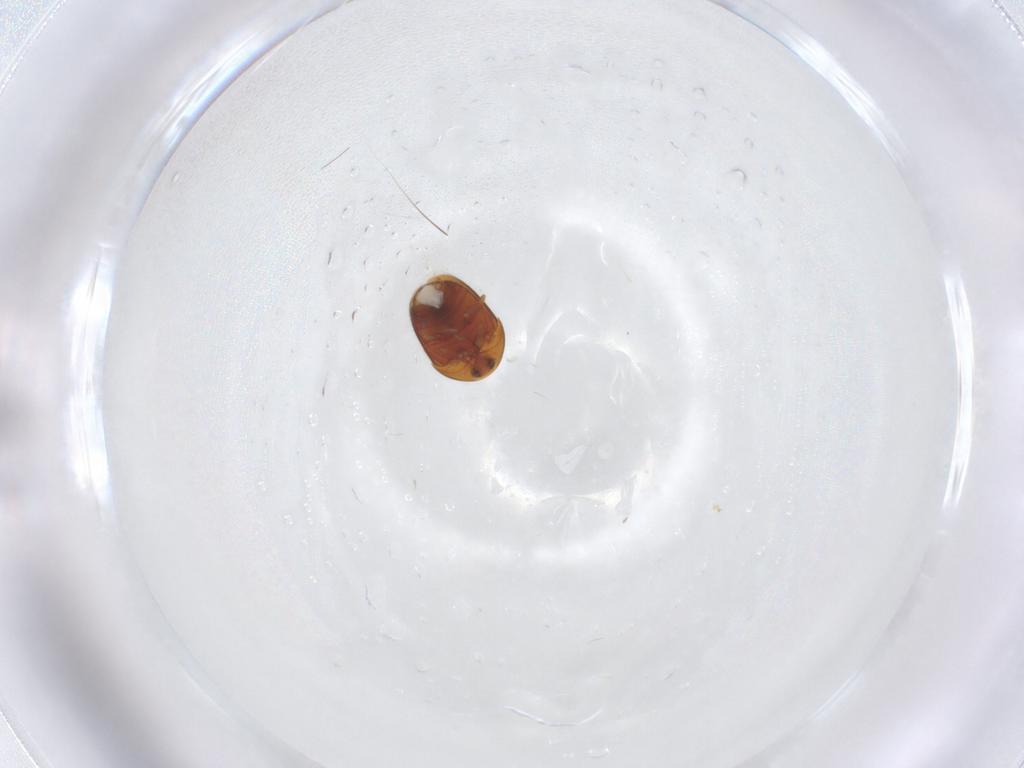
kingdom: Animalia
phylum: Arthropoda
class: Insecta
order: Coleoptera
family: Corylophidae
